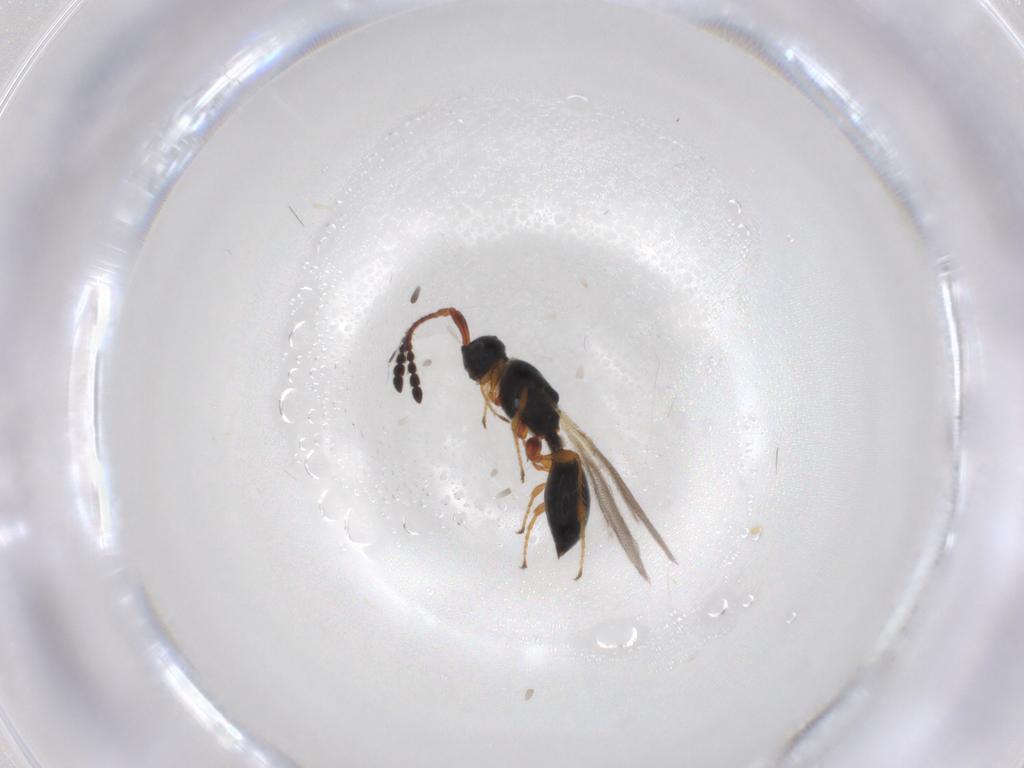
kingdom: Animalia
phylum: Arthropoda
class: Insecta
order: Hymenoptera
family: Diapriidae
